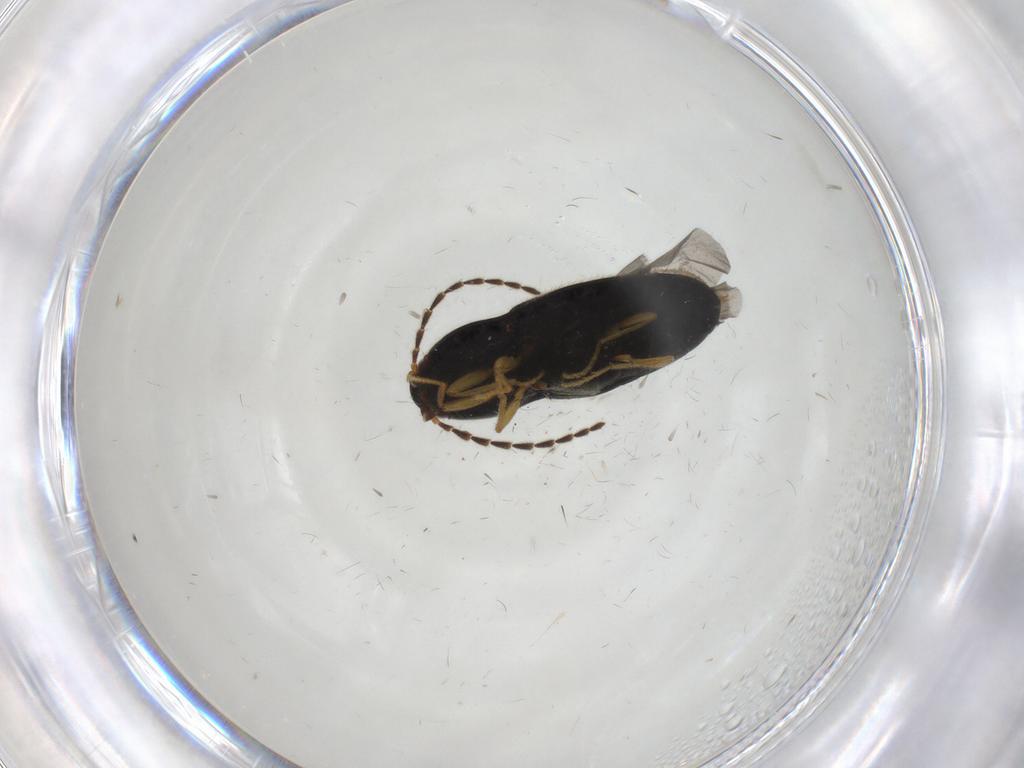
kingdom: Animalia
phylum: Arthropoda
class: Insecta
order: Coleoptera
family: Elateridae
